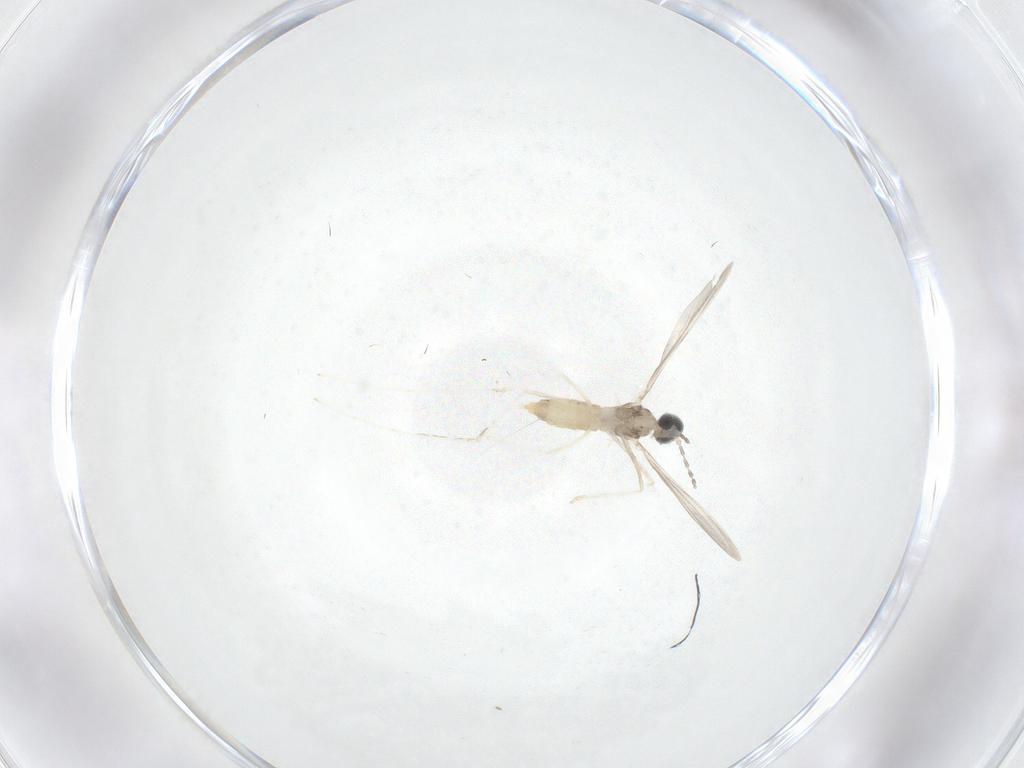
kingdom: Animalia
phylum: Arthropoda
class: Insecta
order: Diptera
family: Cecidomyiidae
